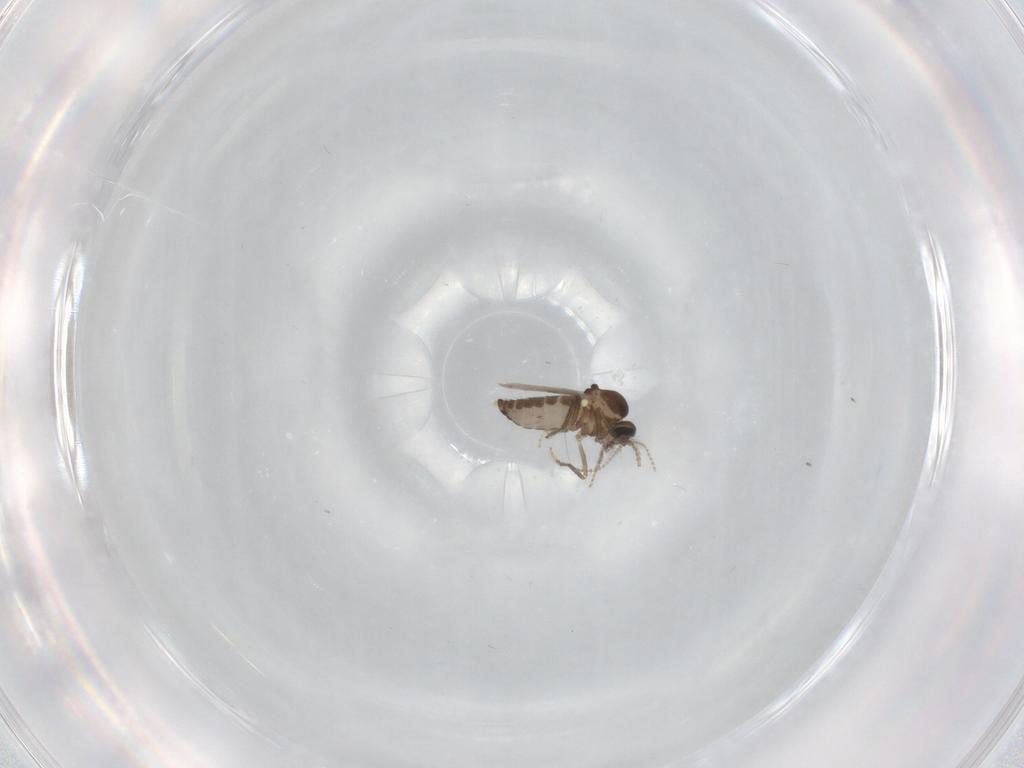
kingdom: Animalia
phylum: Arthropoda
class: Insecta
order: Diptera
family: Ceratopogonidae
